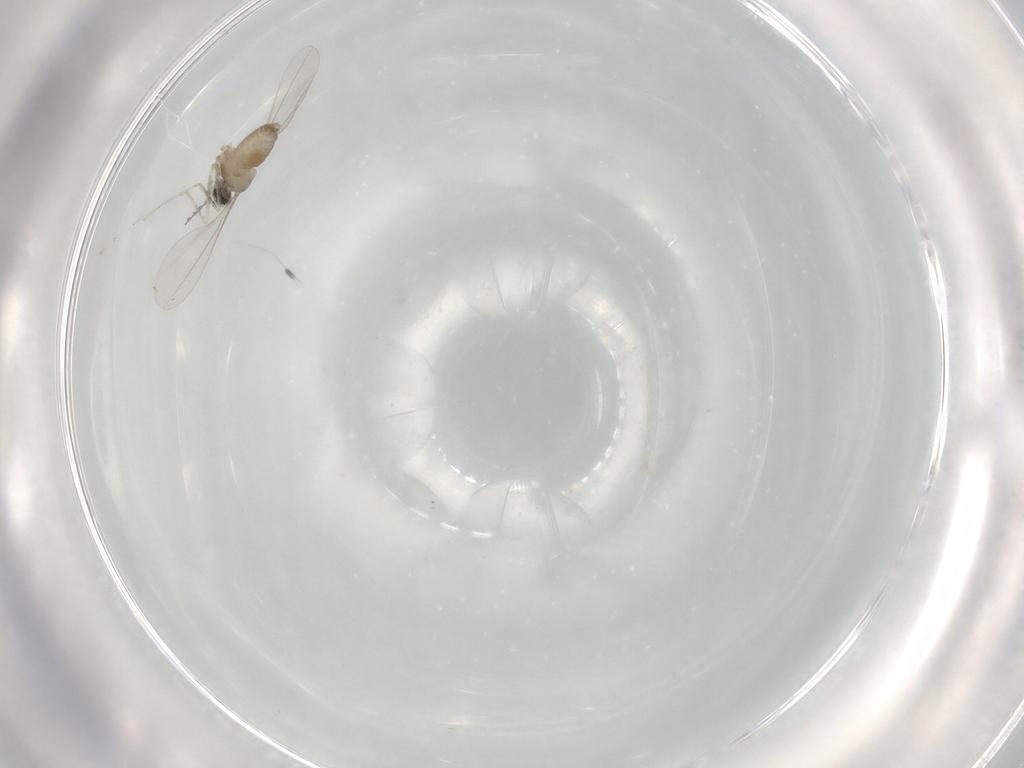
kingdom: Animalia
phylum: Arthropoda
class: Insecta
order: Diptera
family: Cecidomyiidae
